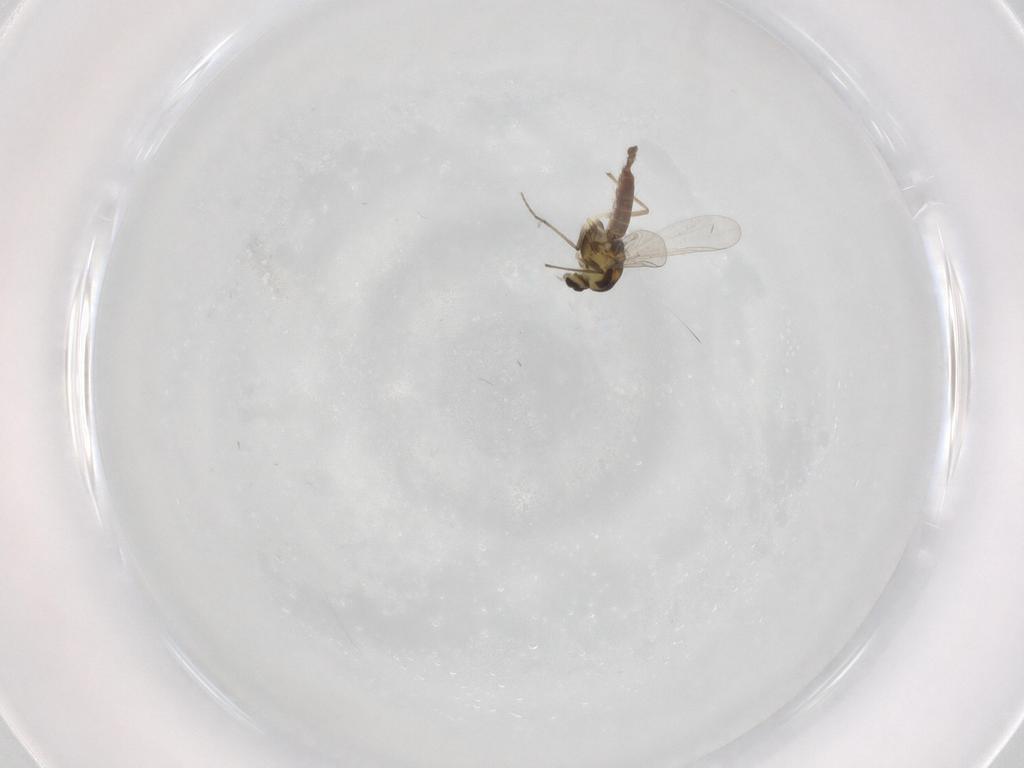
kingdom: Animalia
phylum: Arthropoda
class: Insecta
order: Diptera
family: Chironomidae
